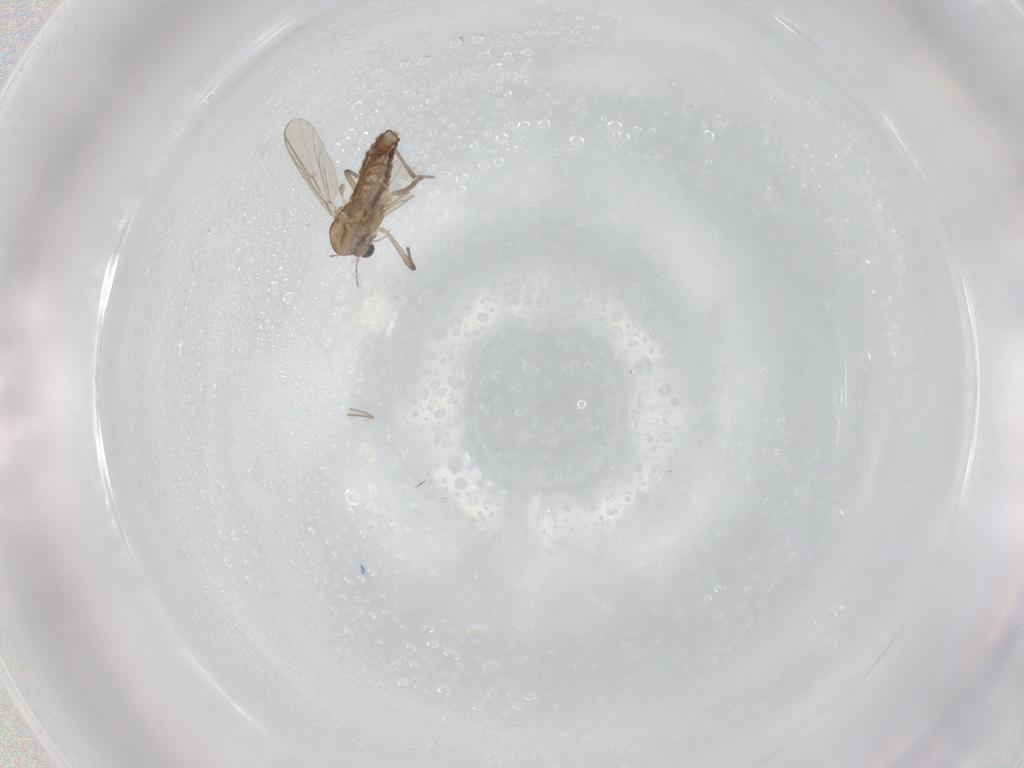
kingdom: Animalia
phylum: Arthropoda
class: Insecta
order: Diptera
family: Chironomidae
